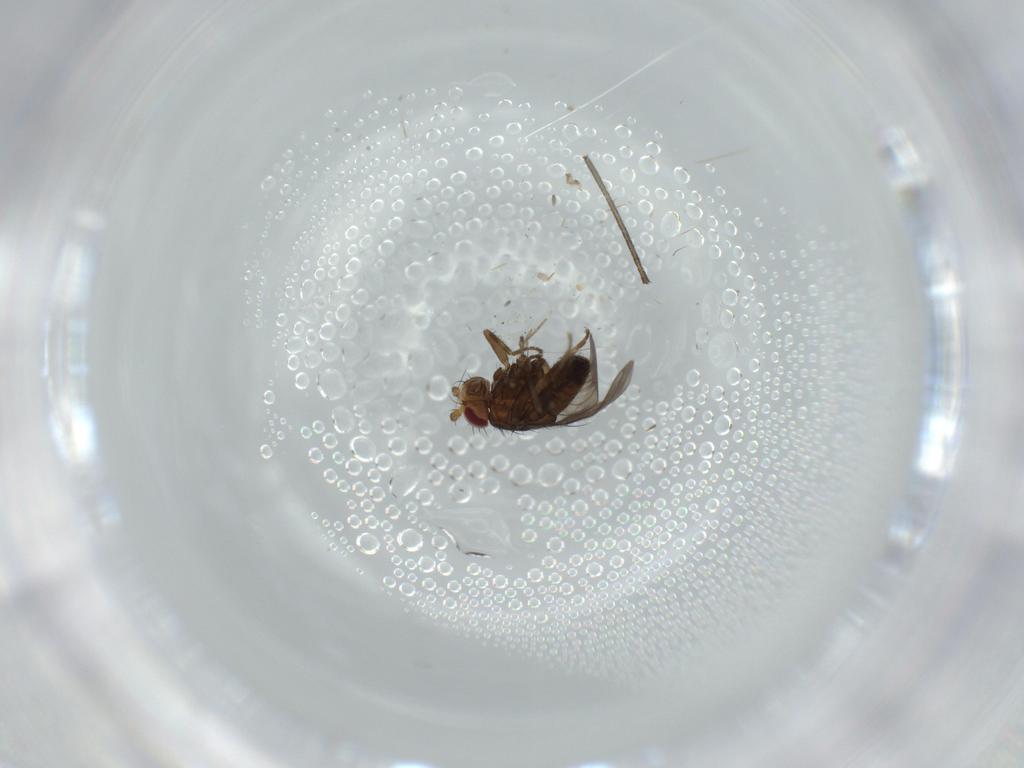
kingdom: Animalia
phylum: Arthropoda
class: Insecta
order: Diptera
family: Sphaeroceridae
